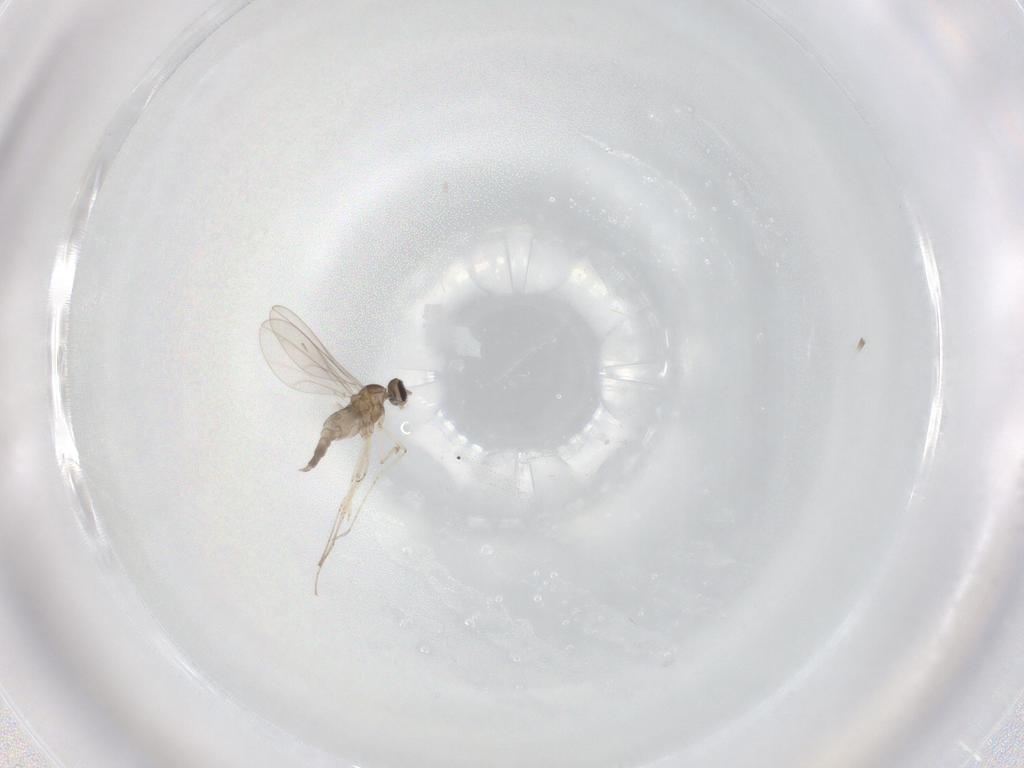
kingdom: Animalia
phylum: Arthropoda
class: Insecta
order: Diptera
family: Cecidomyiidae
